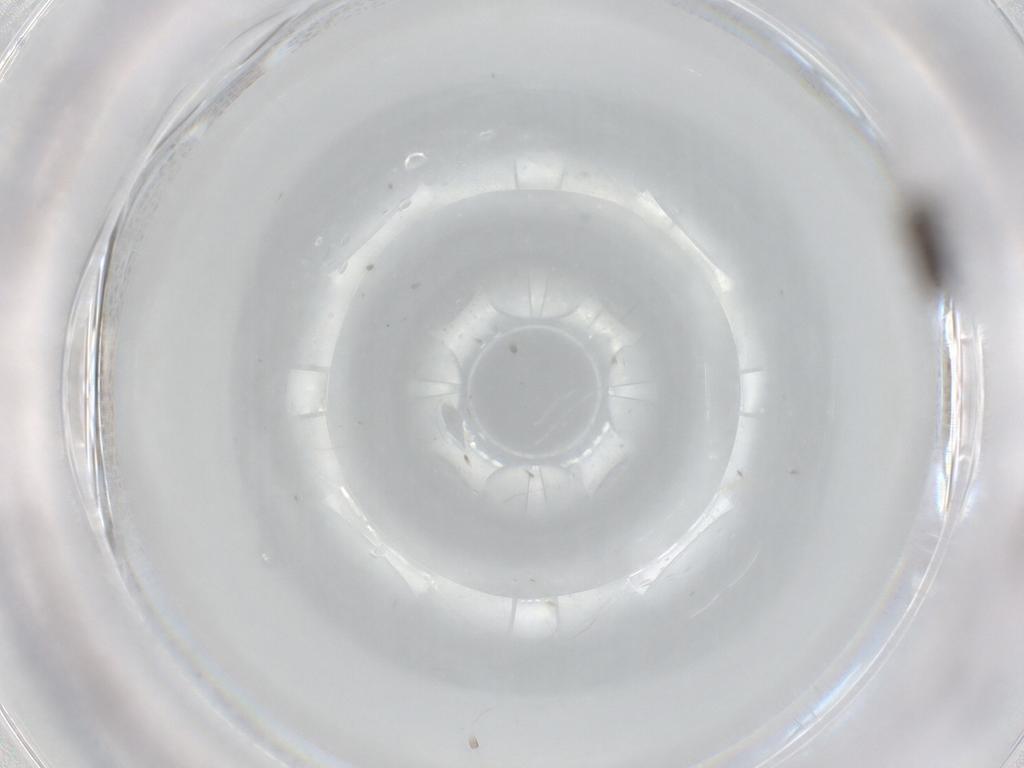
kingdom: Animalia
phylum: Arthropoda
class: Insecta
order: Diptera
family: Phoridae
